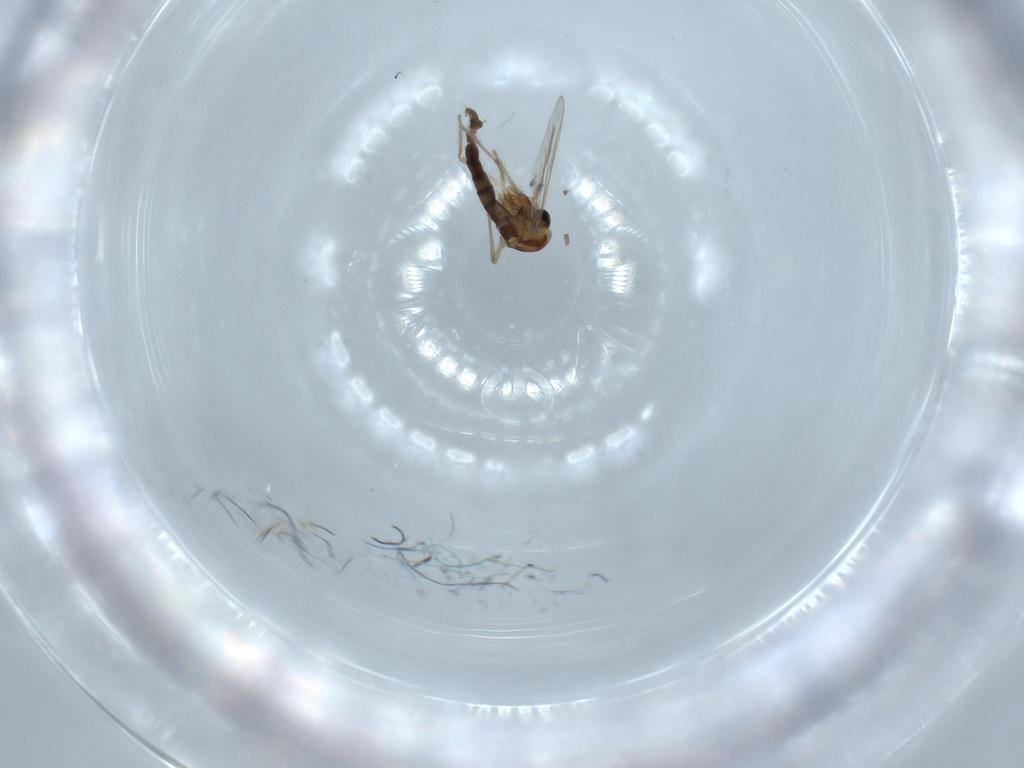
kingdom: Animalia
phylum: Arthropoda
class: Insecta
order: Diptera
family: Chironomidae
